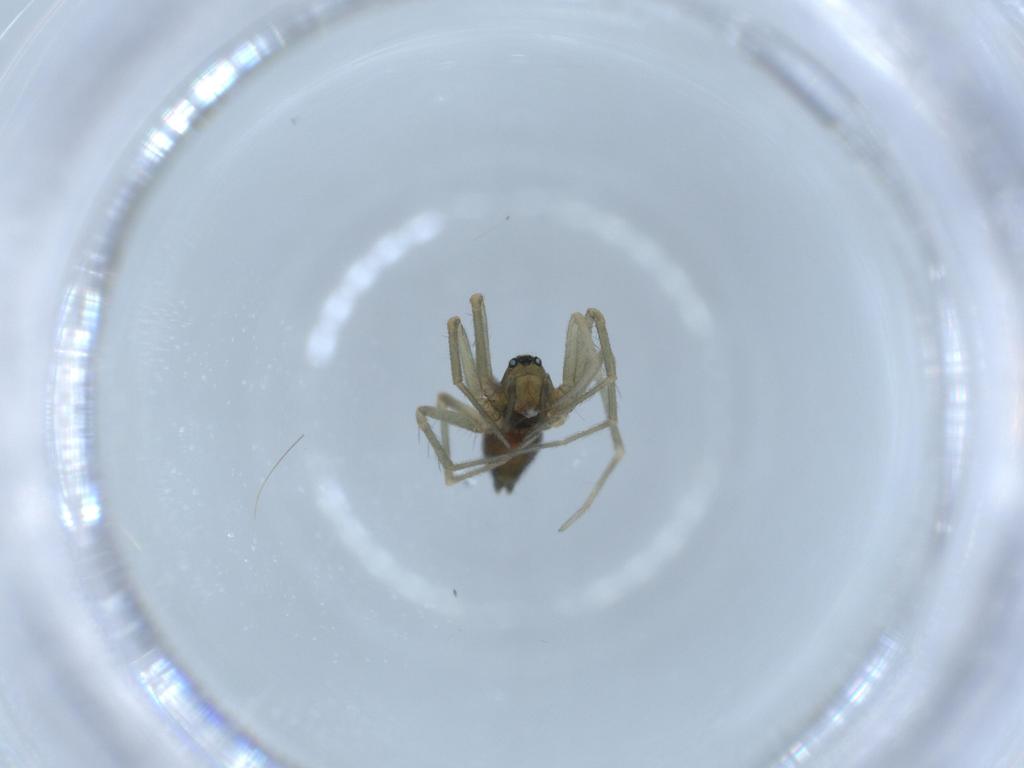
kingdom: Animalia
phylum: Arthropoda
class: Arachnida
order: Araneae
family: Linyphiidae
